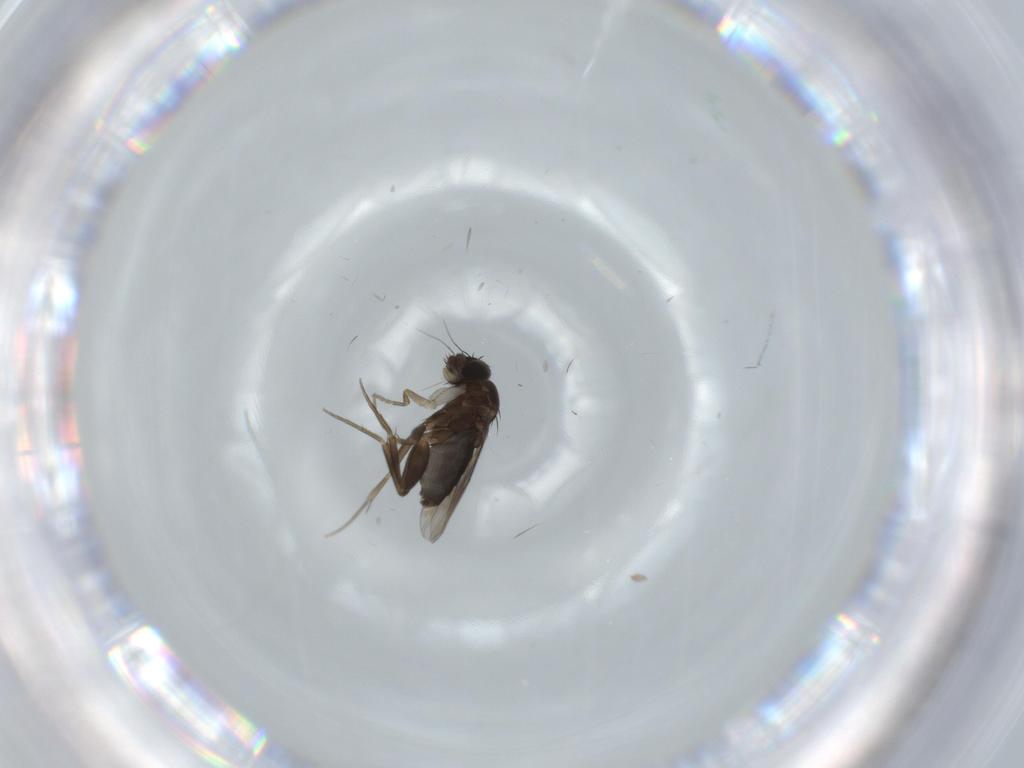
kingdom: Animalia
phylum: Arthropoda
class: Insecta
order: Diptera
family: Phoridae
